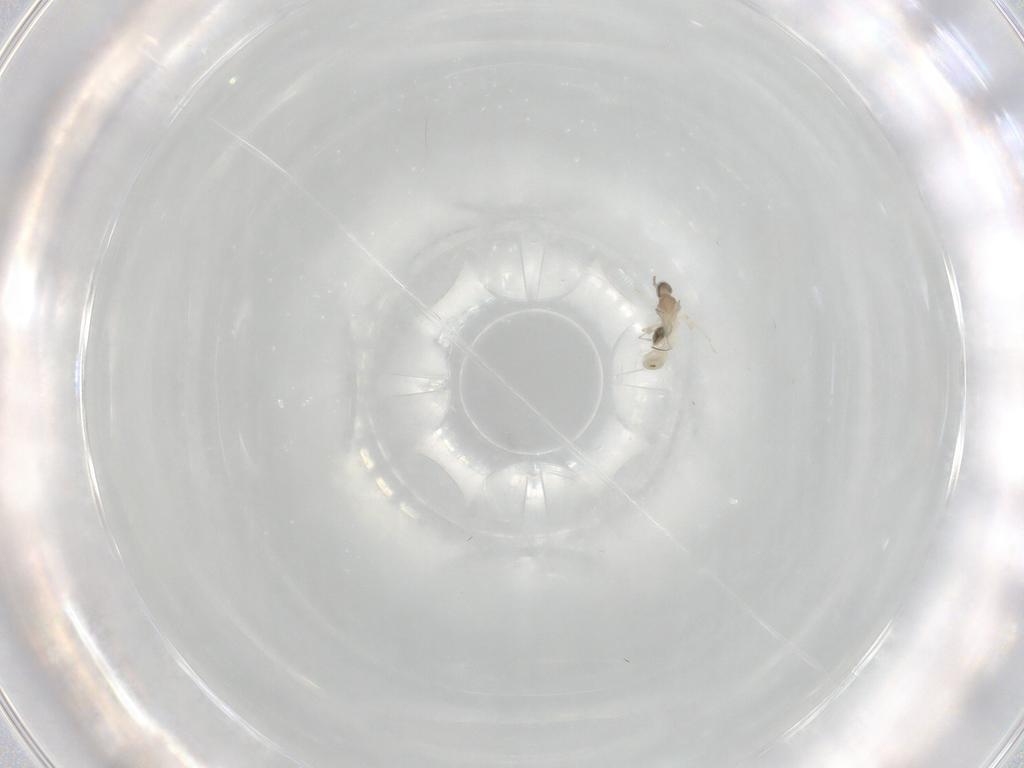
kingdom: Animalia
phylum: Arthropoda
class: Insecta
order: Diptera
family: Cecidomyiidae
